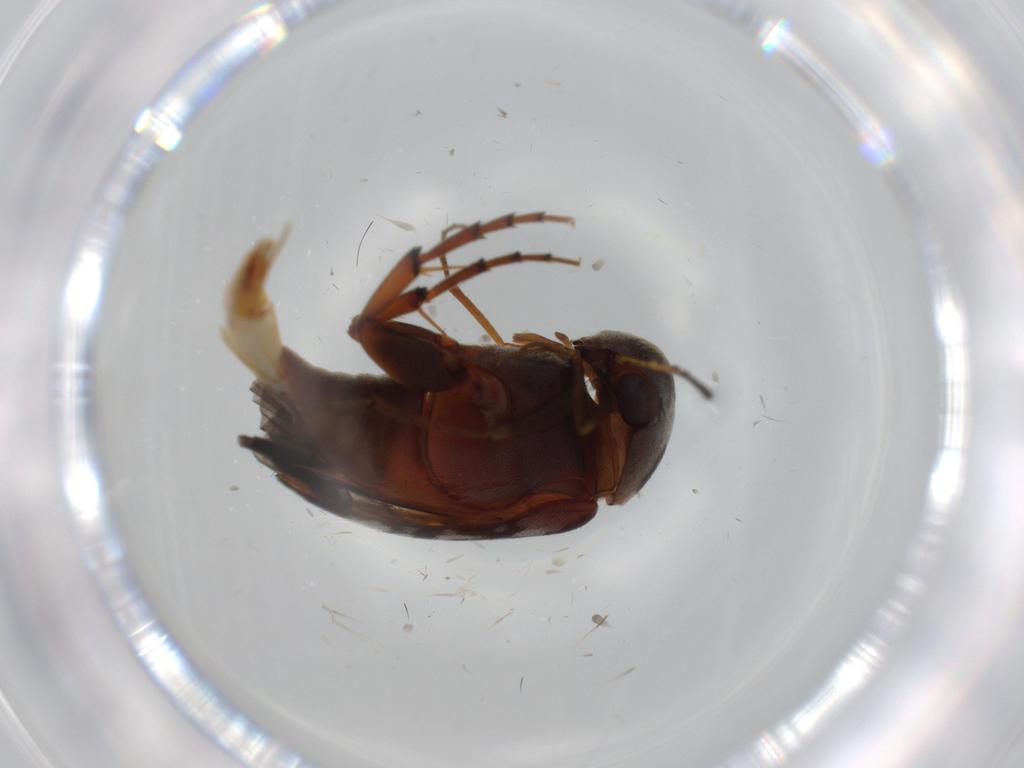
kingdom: Animalia
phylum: Arthropoda
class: Insecta
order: Coleoptera
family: Mordellidae
